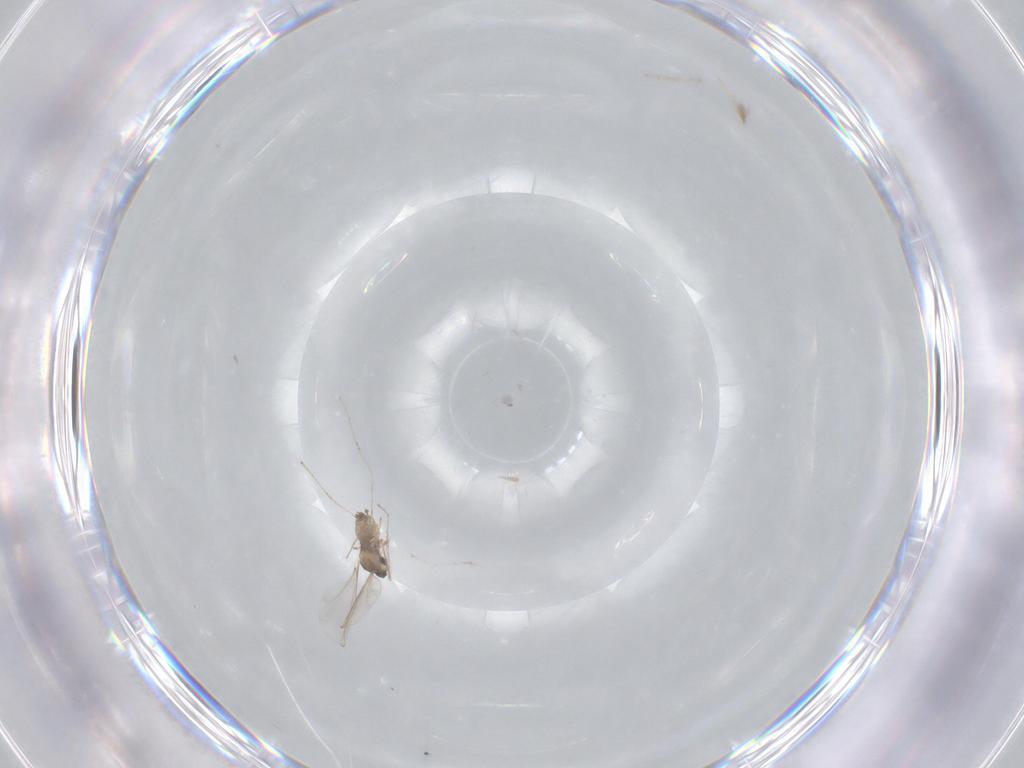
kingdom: Animalia
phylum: Arthropoda
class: Insecta
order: Diptera
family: Cecidomyiidae
